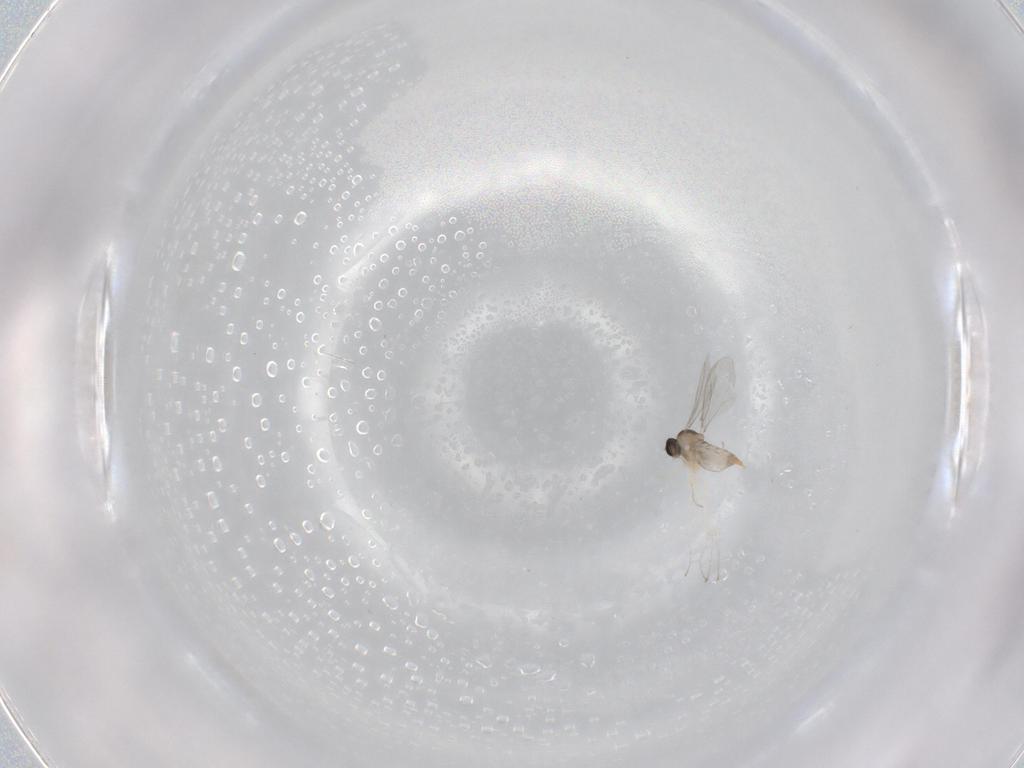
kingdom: Animalia
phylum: Arthropoda
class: Insecta
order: Diptera
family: Cecidomyiidae
